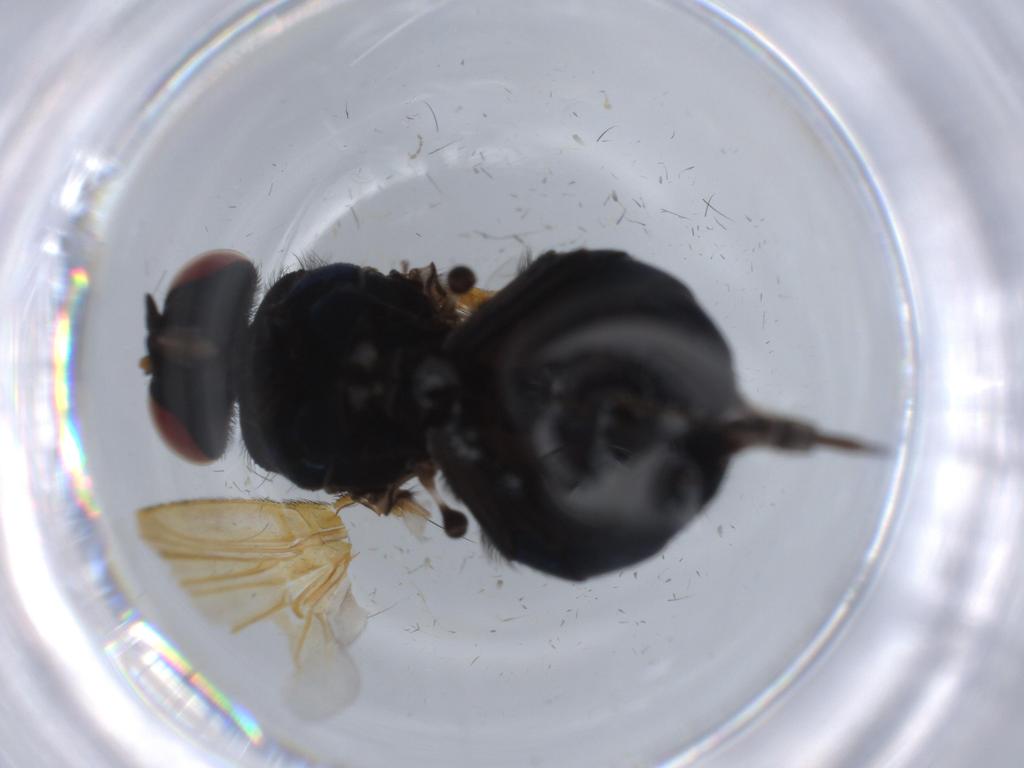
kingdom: Animalia
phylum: Arthropoda
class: Insecta
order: Diptera
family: Lonchaeidae
